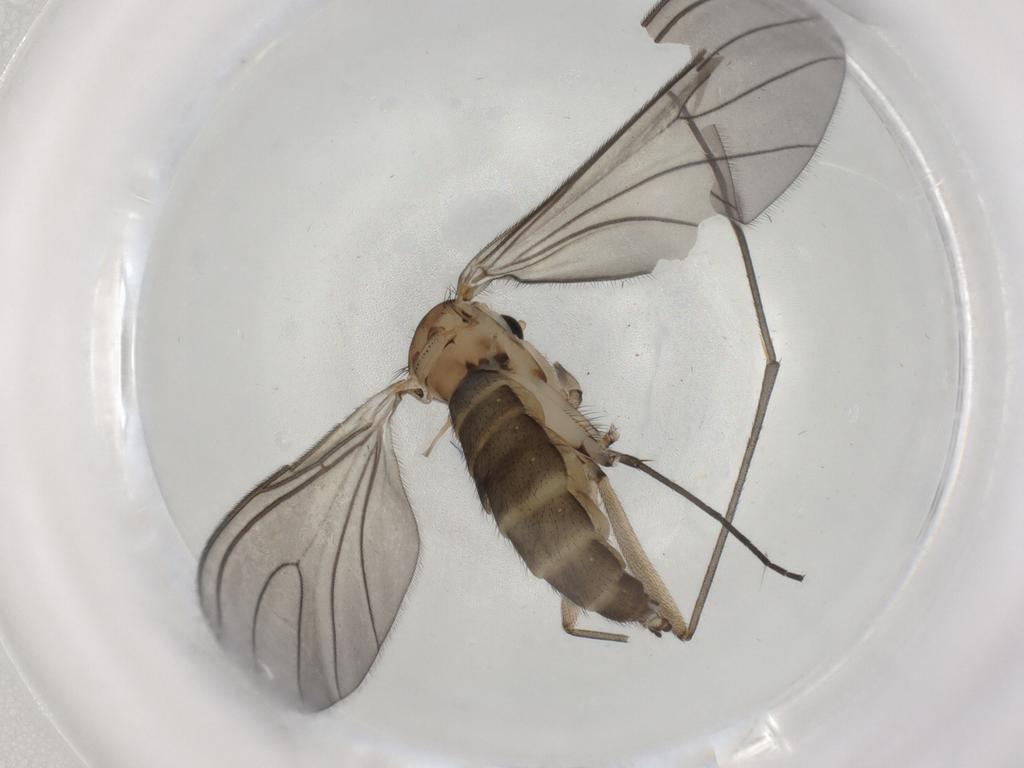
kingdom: Animalia
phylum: Arthropoda
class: Insecta
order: Diptera
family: Sciaridae
